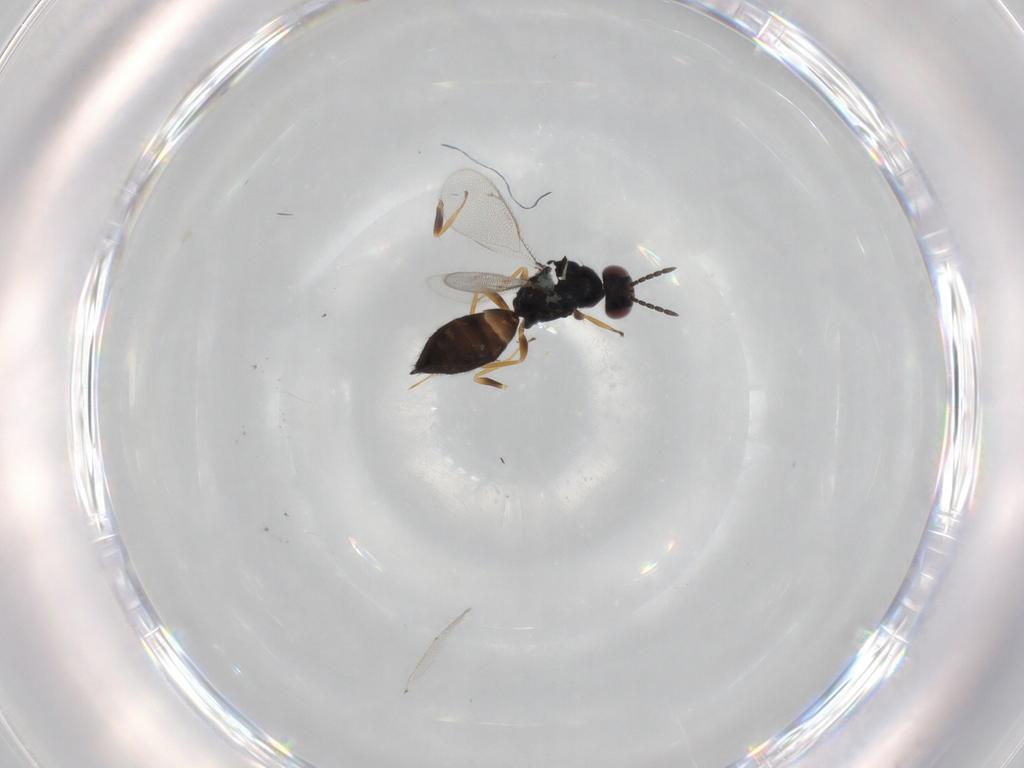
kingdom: Animalia
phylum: Arthropoda
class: Insecta
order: Hymenoptera
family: Eulophidae
